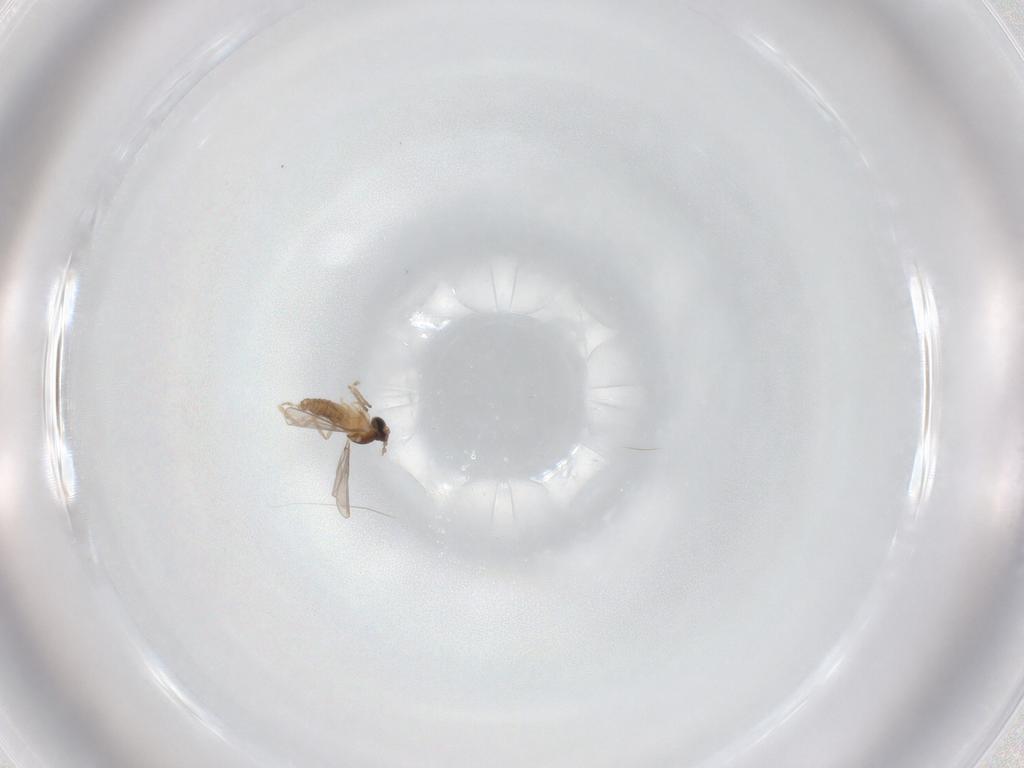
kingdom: Animalia
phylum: Arthropoda
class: Insecta
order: Diptera
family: Cecidomyiidae
